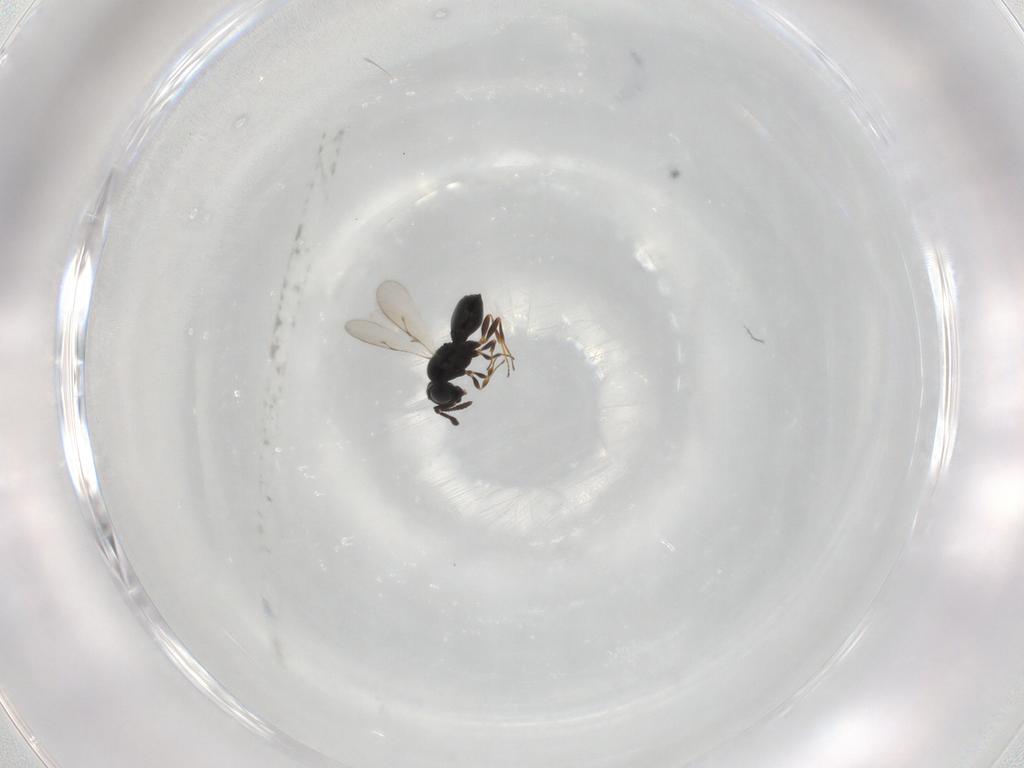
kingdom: Animalia
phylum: Arthropoda
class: Insecta
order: Hymenoptera
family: Scelionidae
